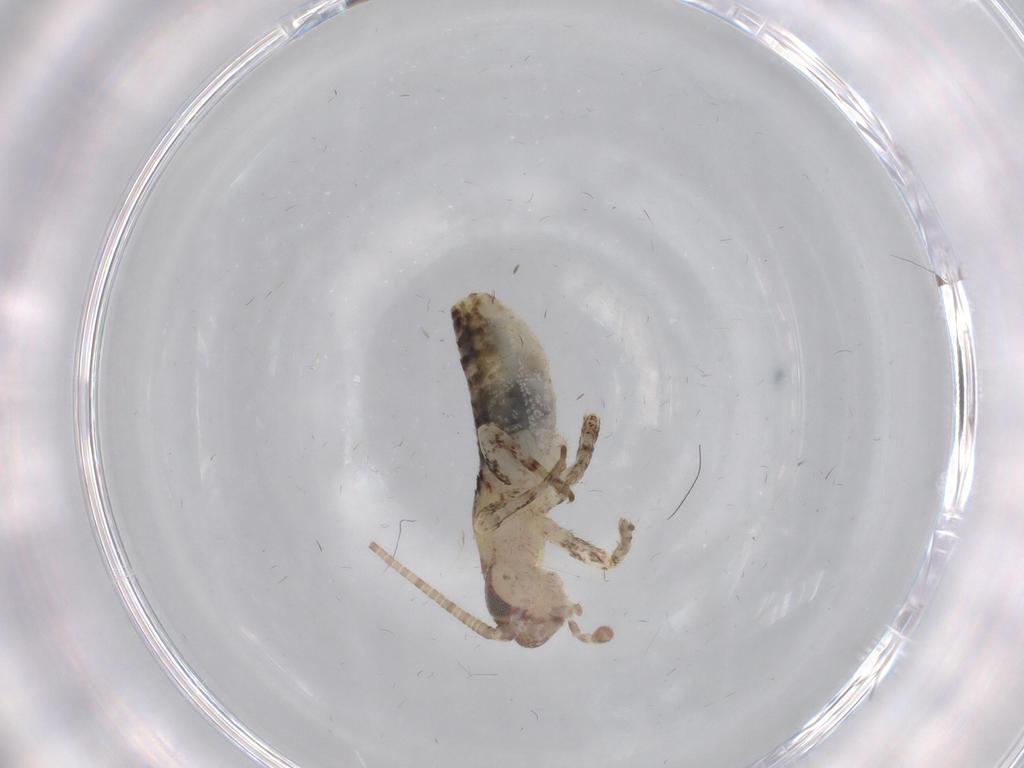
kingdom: Animalia
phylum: Arthropoda
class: Insecta
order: Orthoptera
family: Mogoplistidae
